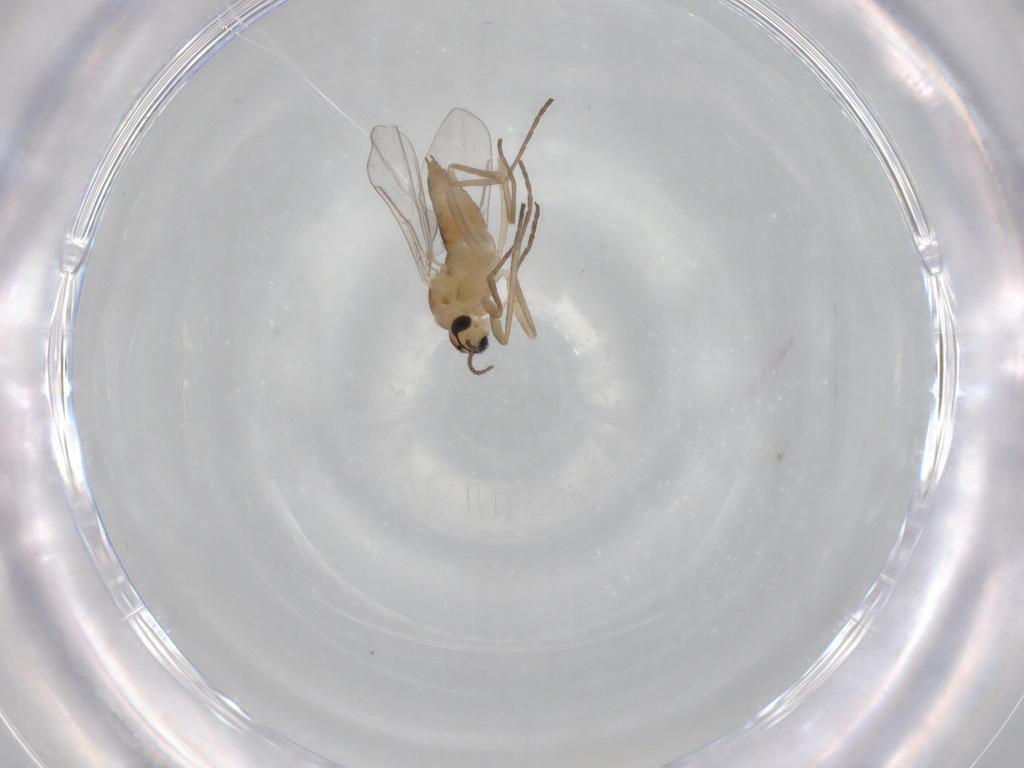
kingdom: Animalia
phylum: Arthropoda
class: Insecta
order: Diptera
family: Cecidomyiidae
